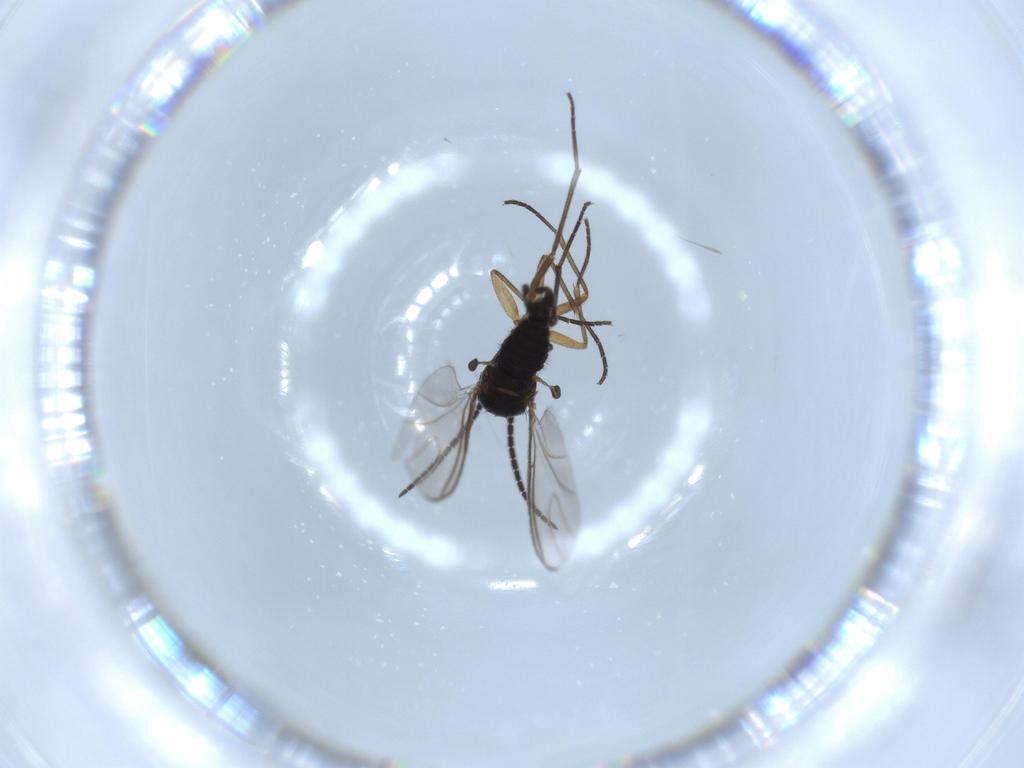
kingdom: Animalia
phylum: Arthropoda
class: Insecta
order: Diptera
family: Sciaridae
